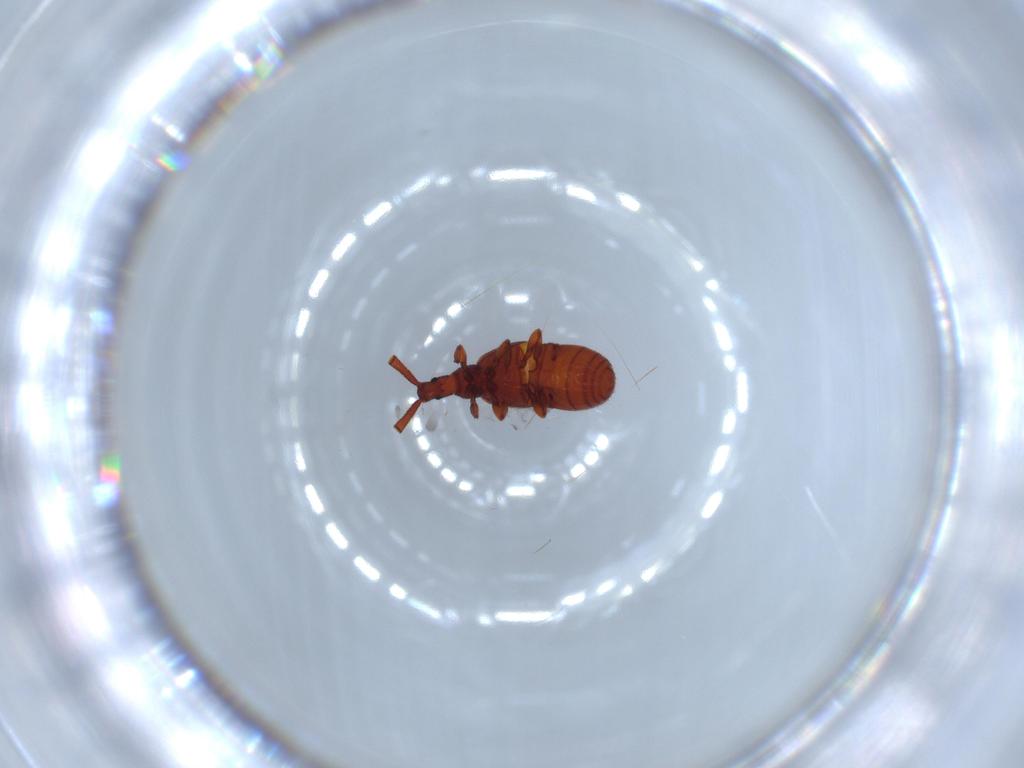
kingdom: Animalia
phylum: Arthropoda
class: Insecta
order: Coleoptera
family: Staphylinidae
